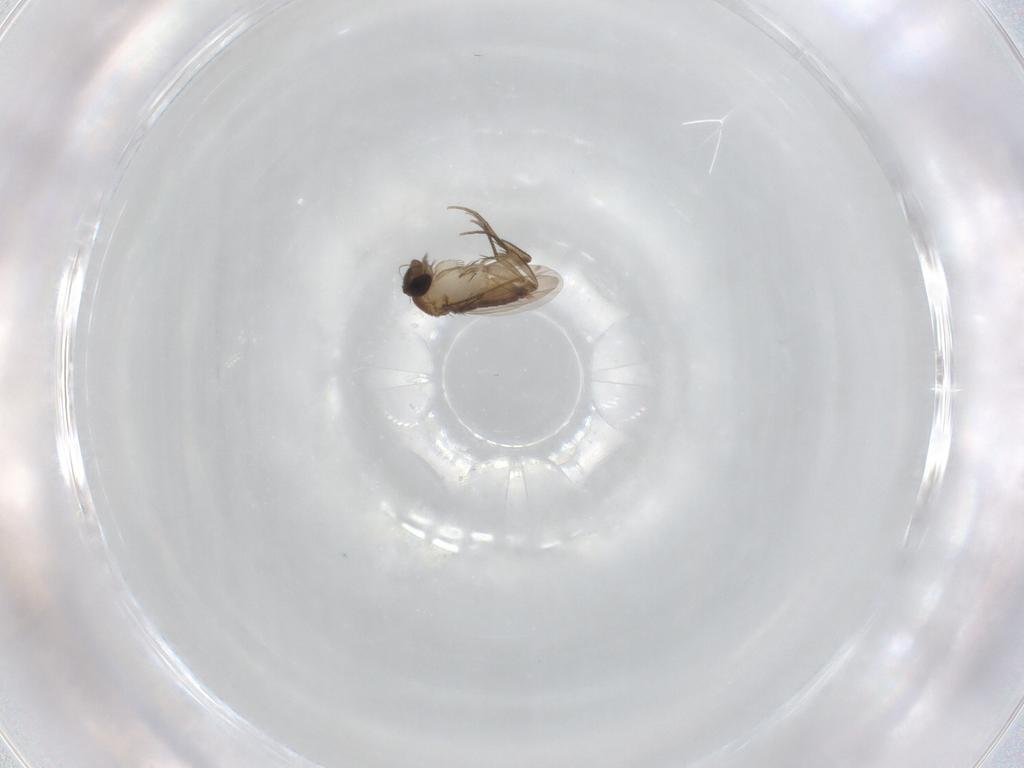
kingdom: Animalia
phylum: Arthropoda
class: Insecta
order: Diptera
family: Phoridae
